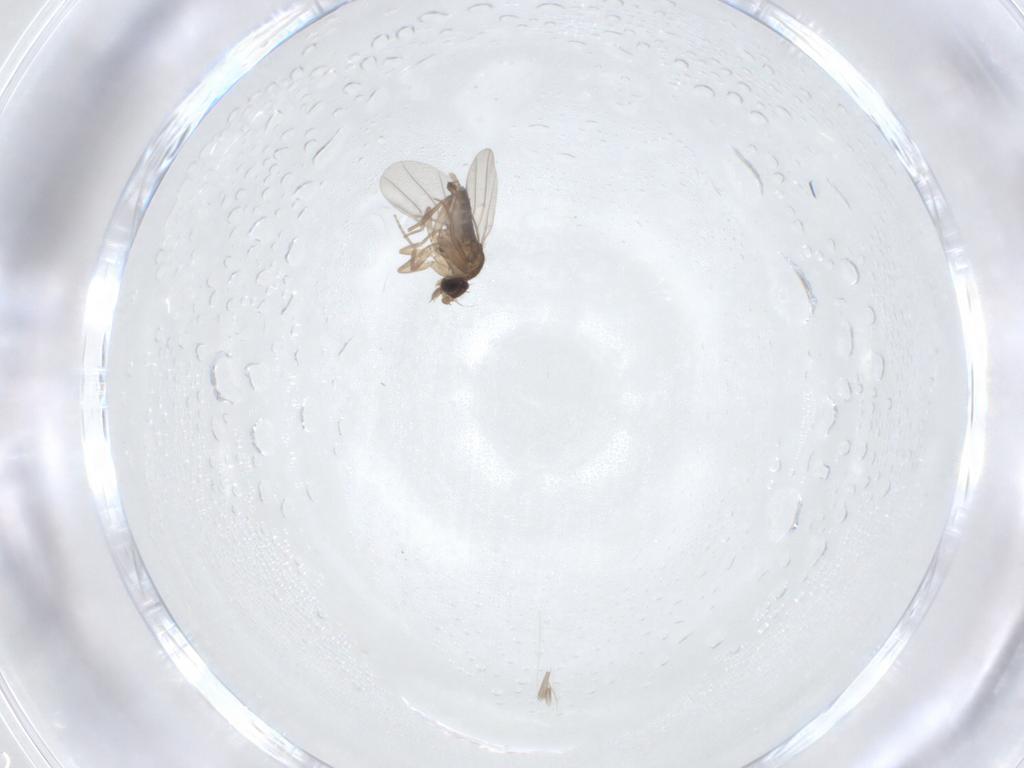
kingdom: Animalia
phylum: Arthropoda
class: Insecta
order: Diptera
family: Phoridae
